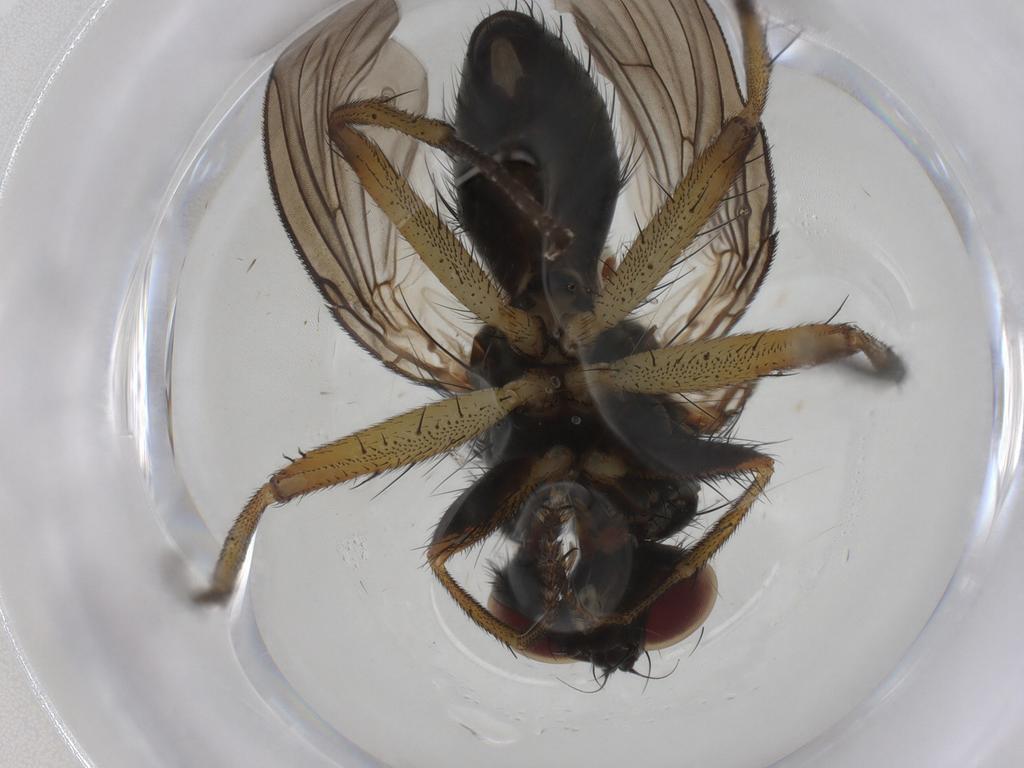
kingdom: Animalia
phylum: Arthropoda
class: Insecta
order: Diptera
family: Muscidae
